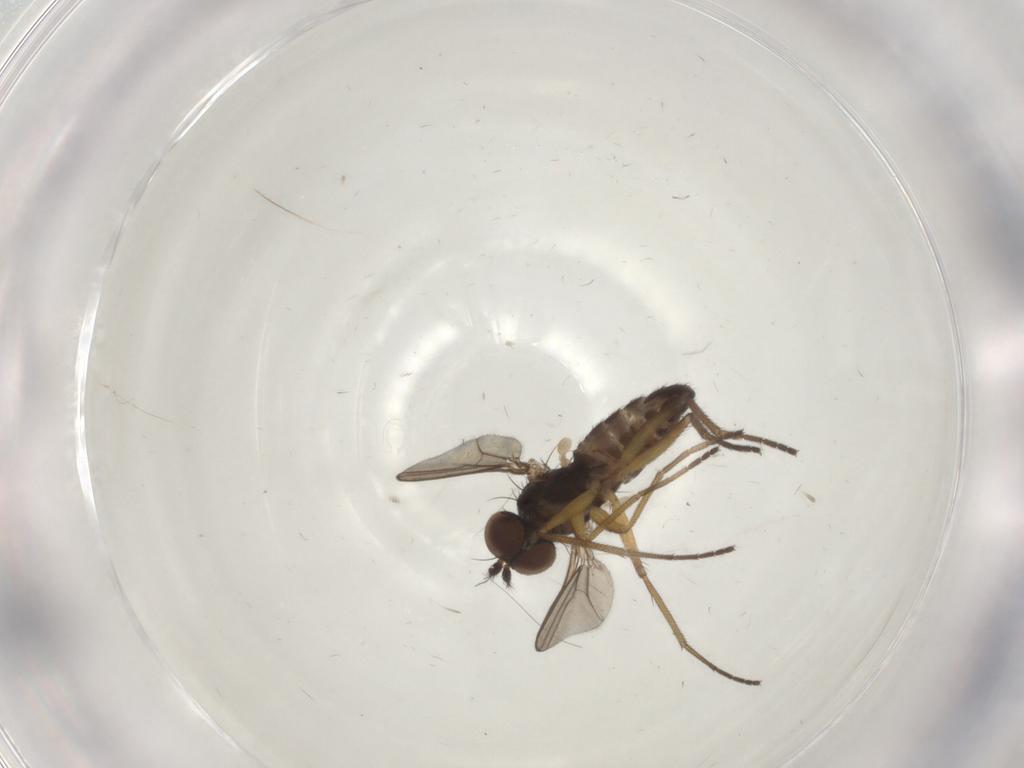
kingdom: Animalia
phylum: Arthropoda
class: Insecta
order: Diptera
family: Dolichopodidae
